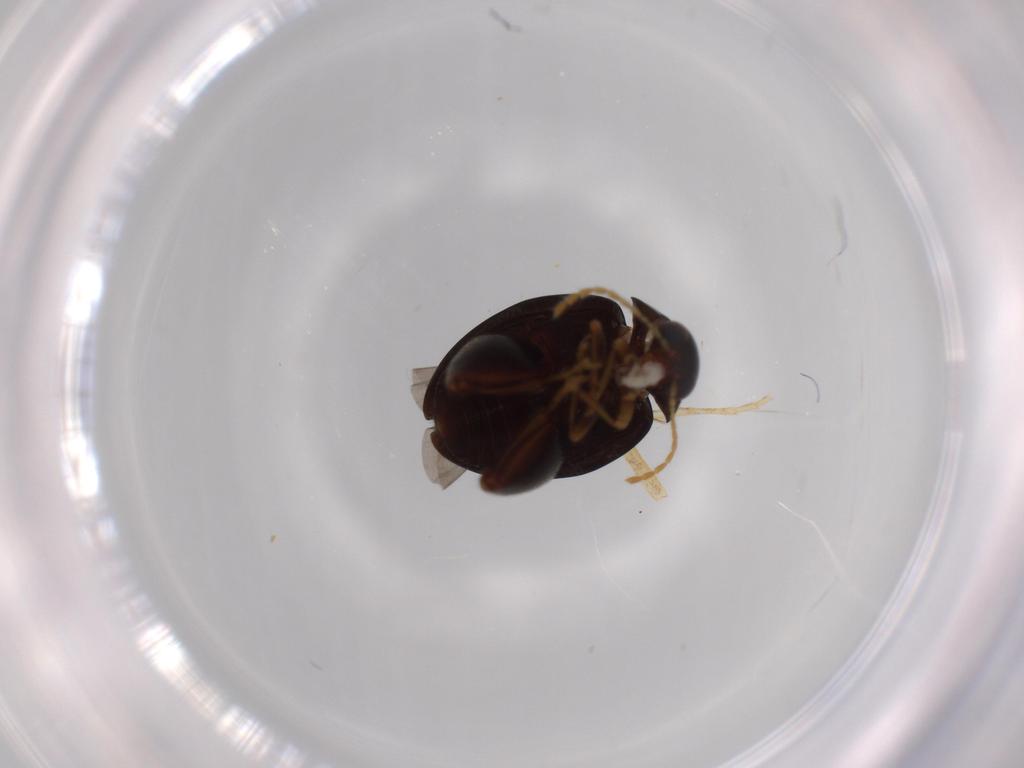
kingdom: Animalia
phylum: Arthropoda
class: Insecta
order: Coleoptera
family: Chrysomelidae
